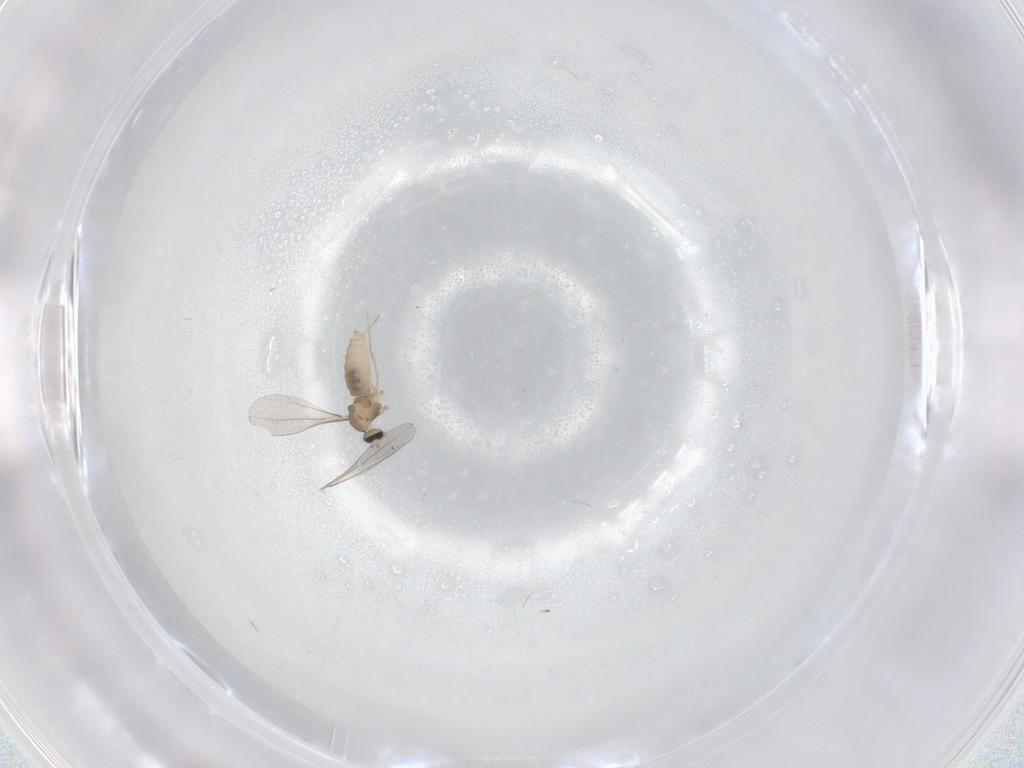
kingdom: Animalia
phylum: Arthropoda
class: Insecta
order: Diptera
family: Cecidomyiidae
